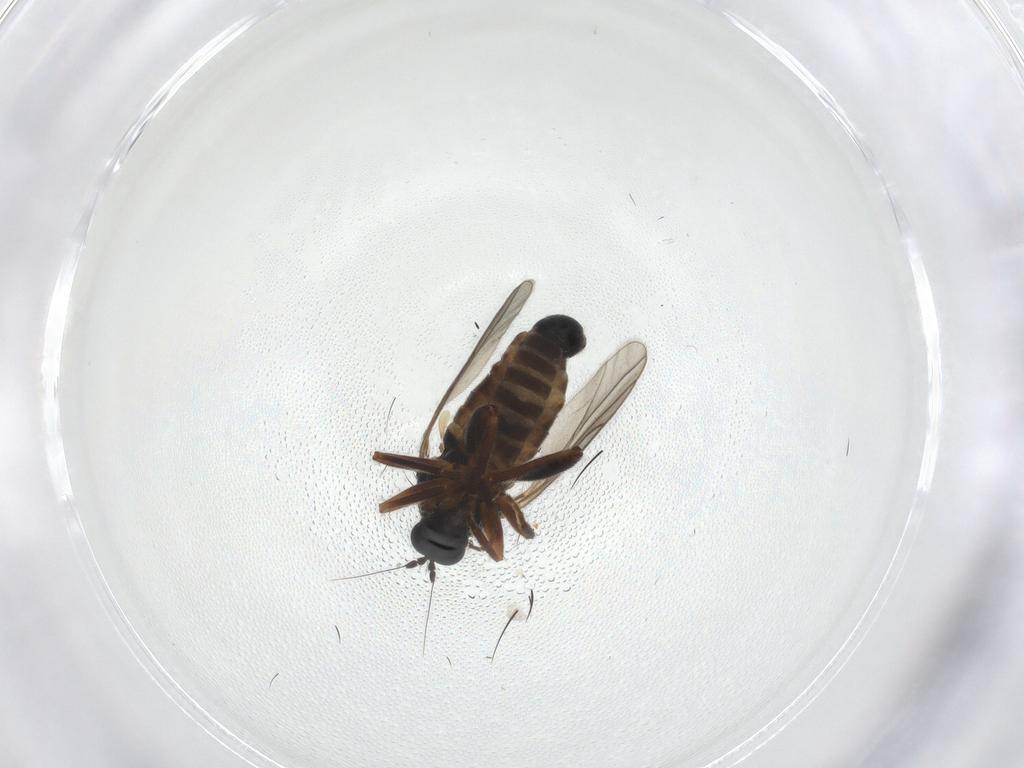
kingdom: Animalia
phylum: Arthropoda
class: Insecta
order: Diptera
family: Hybotidae
